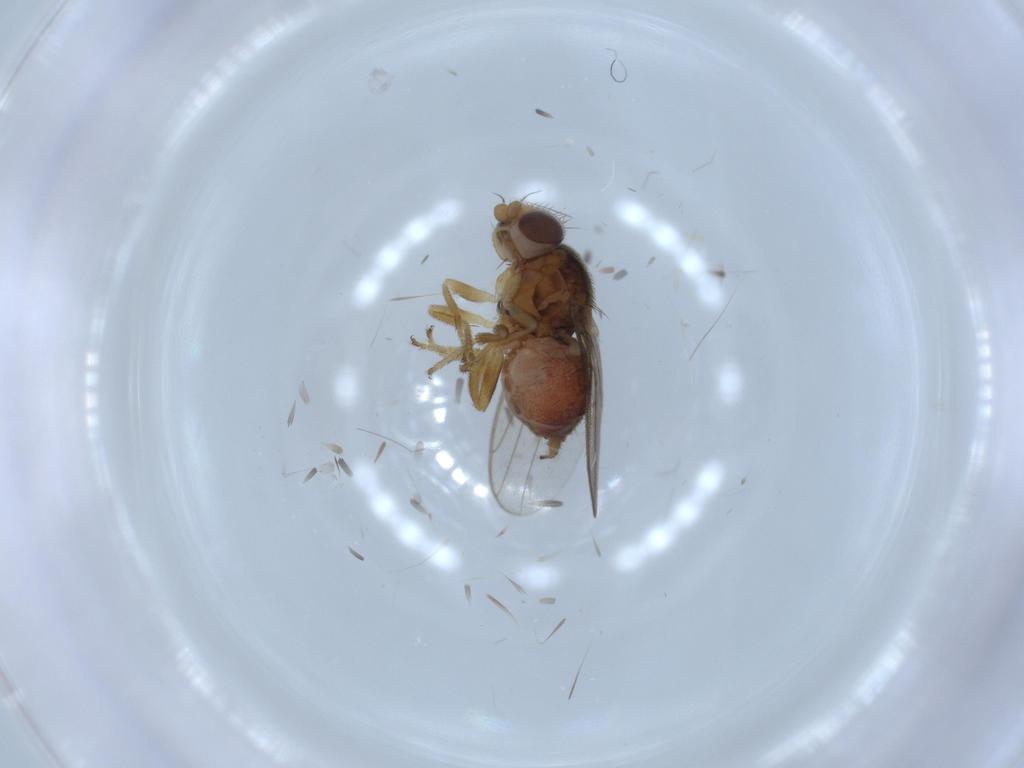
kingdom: Animalia
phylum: Arthropoda
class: Insecta
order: Diptera
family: Chloropidae
